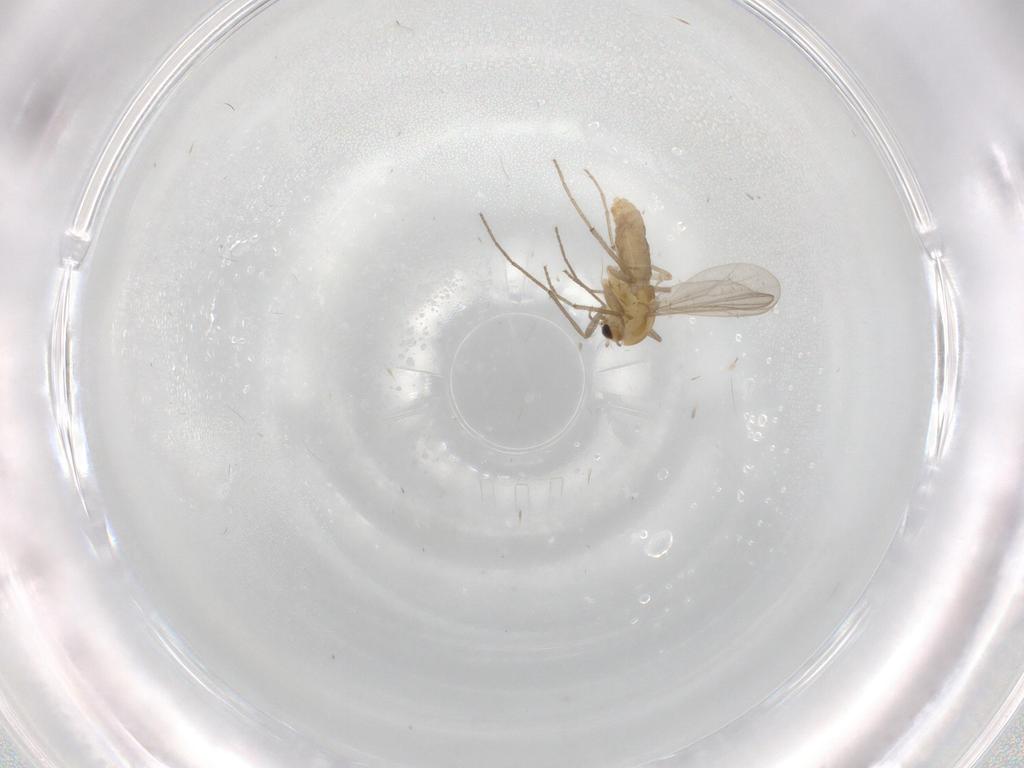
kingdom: Animalia
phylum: Arthropoda
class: Insecta
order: Diptera
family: Chironomidae
